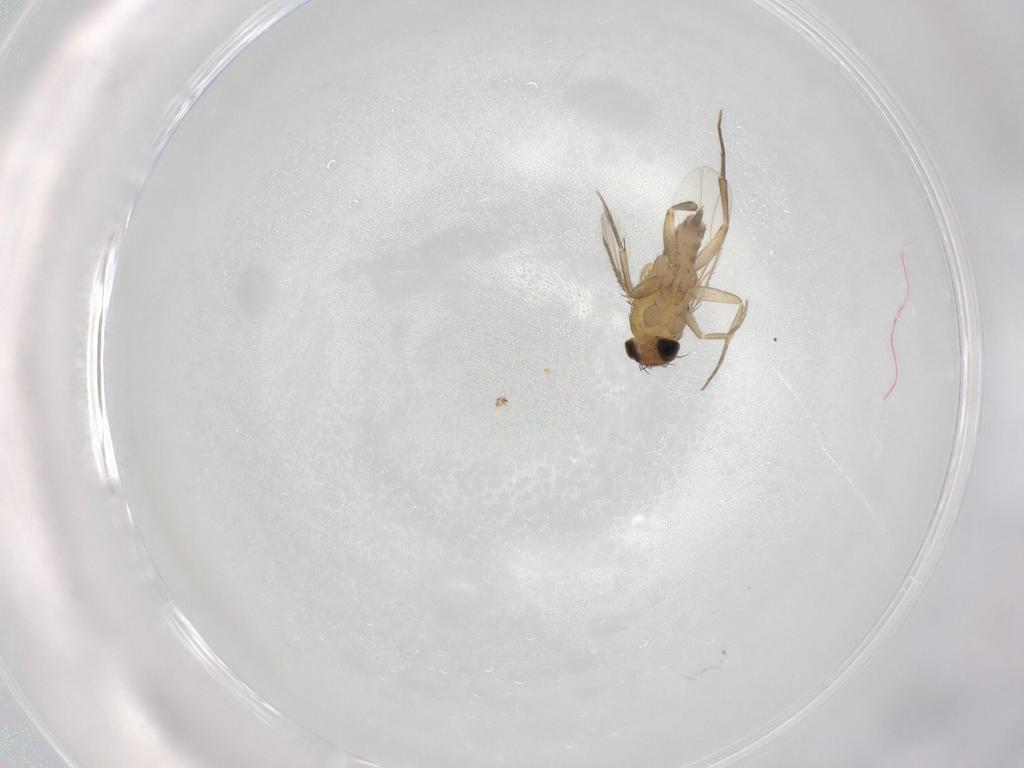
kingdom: Animalia
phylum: Arthropoda
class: Insecta
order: Diptera
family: Phoridae
